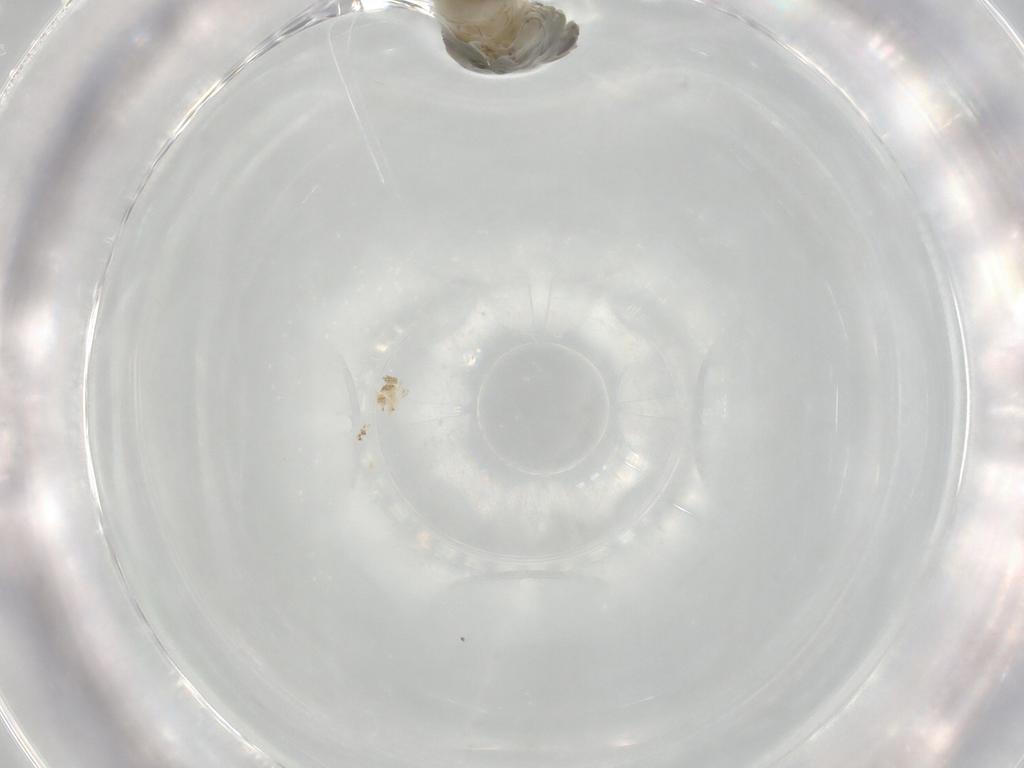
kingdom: Animalia
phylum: Arthropoda
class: Insecta
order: Diptera
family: Chironomidae
